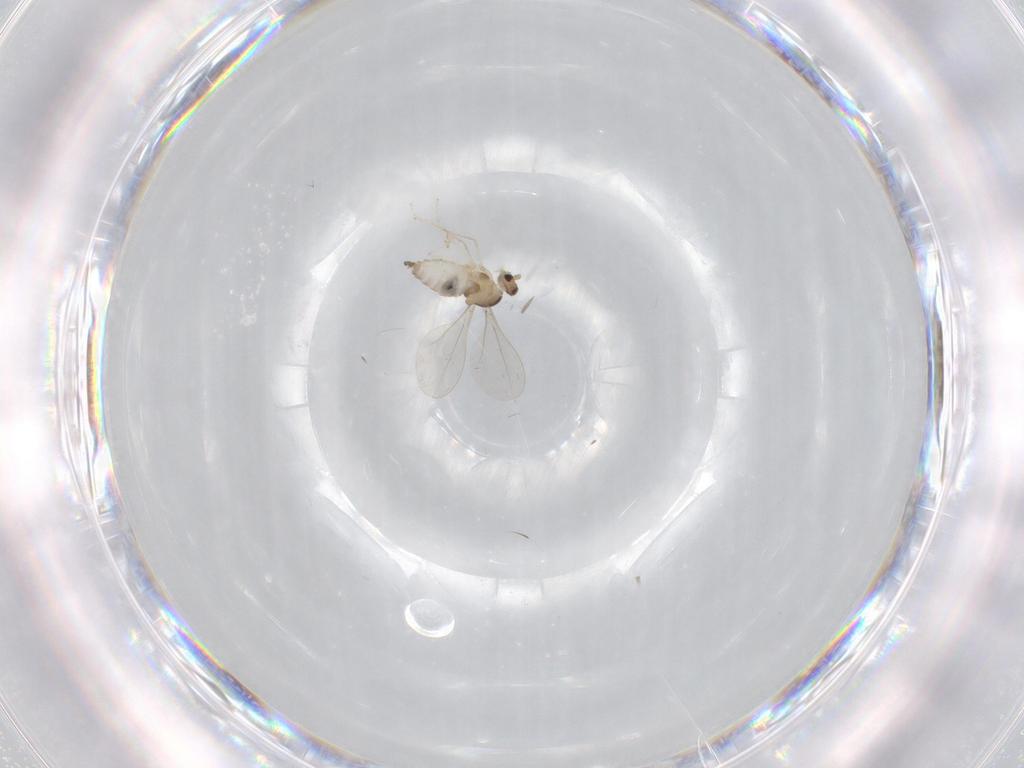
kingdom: Animalia
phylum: Arthropoda
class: Insecta
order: Diptera
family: Cecidomyiidae
